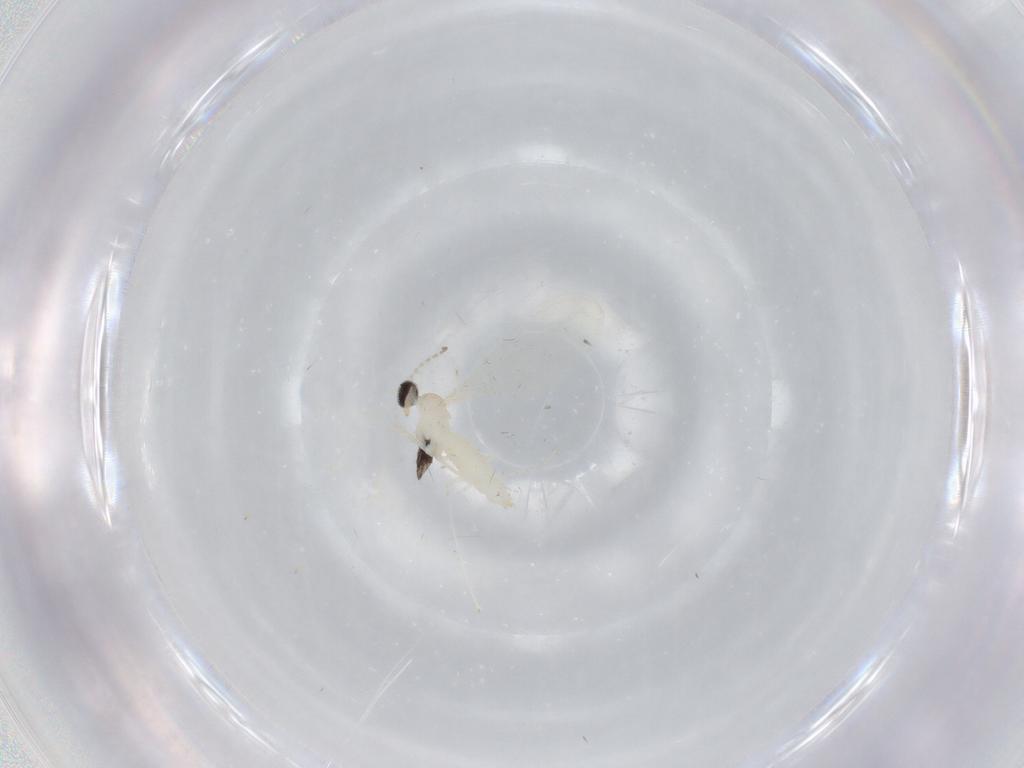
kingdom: Animalia
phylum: Arthropoda
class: Insecta
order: Diptera
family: Cecidomyiidae
